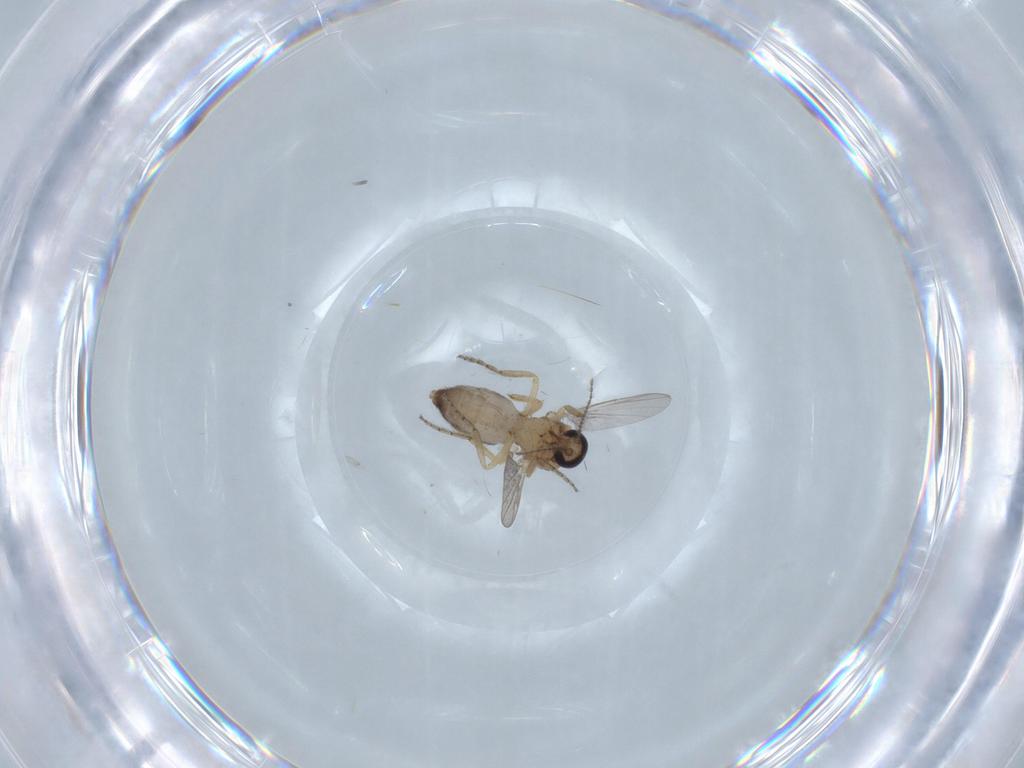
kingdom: Animalia
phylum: Arthropoda
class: Insecta
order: Diptera
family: Ceratopogonidae
